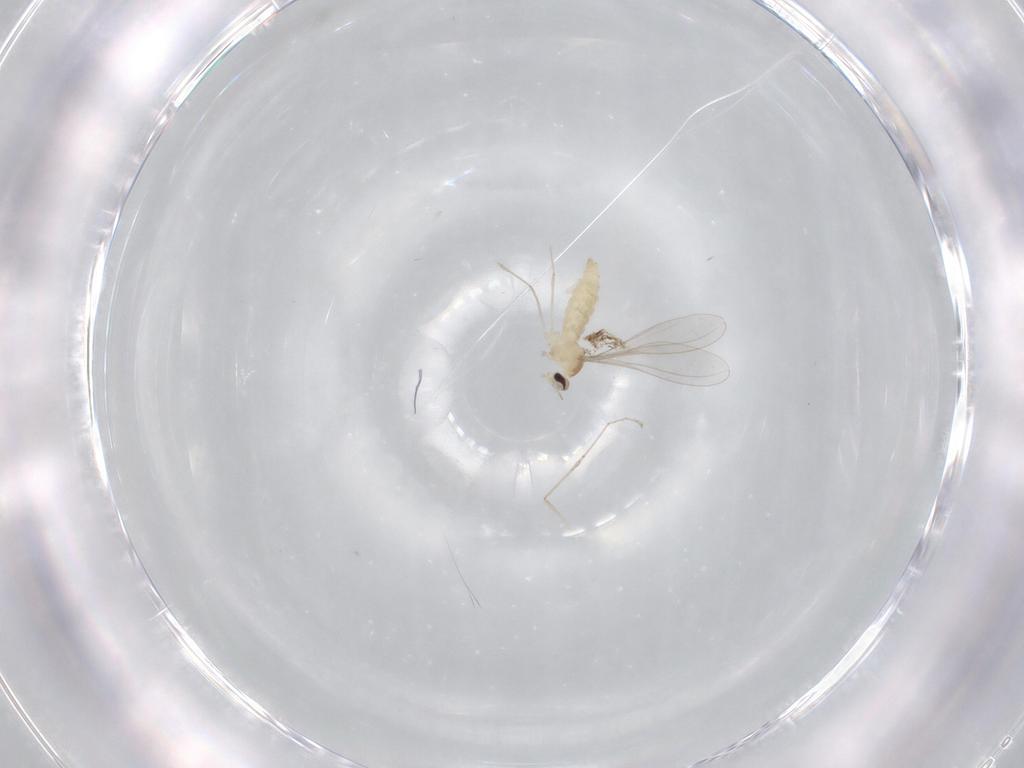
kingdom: Animalia
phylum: Arthropoda
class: Insecta
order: Diptera
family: Cecidomyiidae
